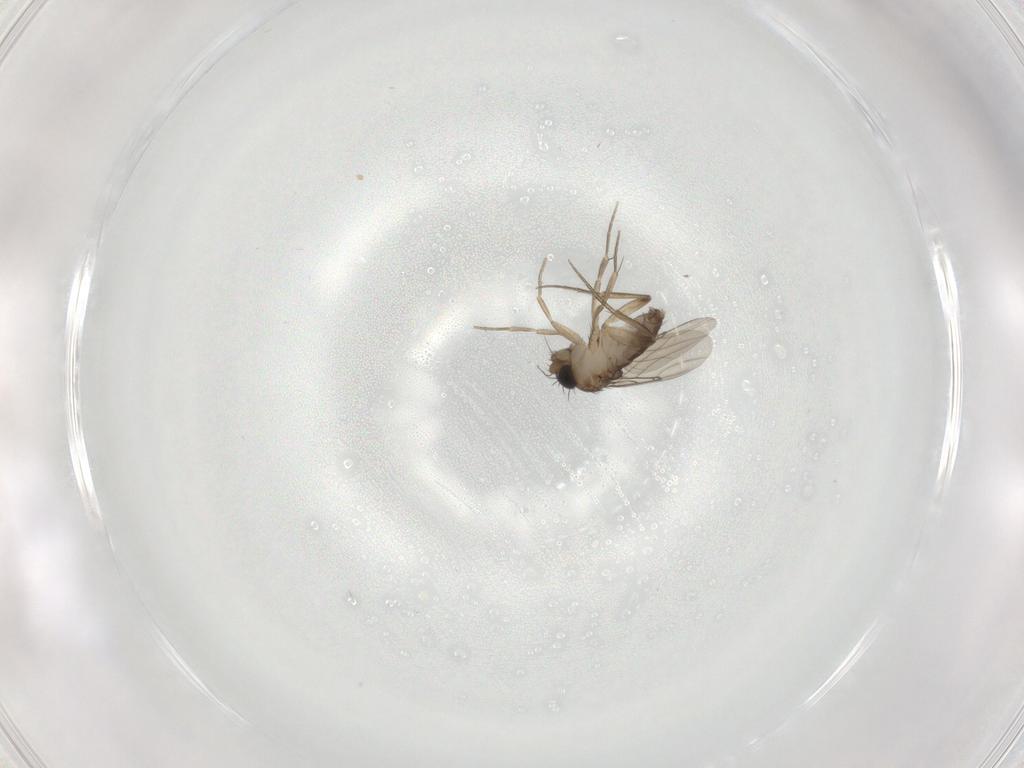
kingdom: Animalia
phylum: Arthropoda
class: Insecta
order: Diptera
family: Phoridae
